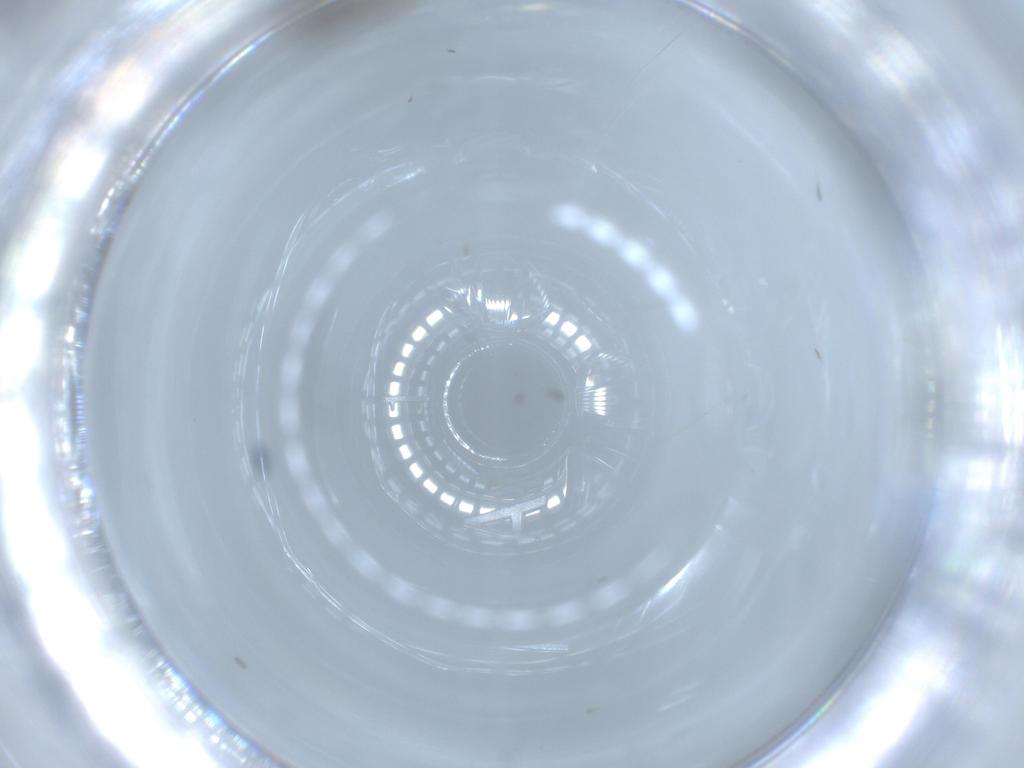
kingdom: Animalia
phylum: Arthropoda
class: Insecta
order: Diptera
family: Chironomidae
